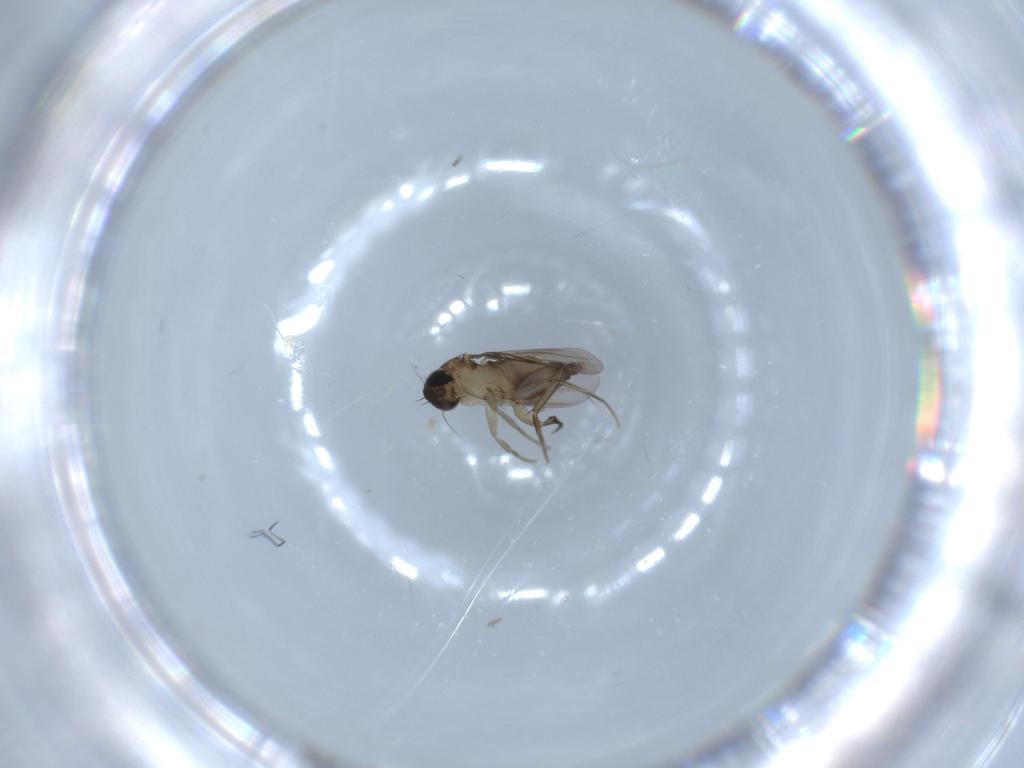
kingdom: Animalia
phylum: Arthropoda
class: Insecta
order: Diptera
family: Phoridae
